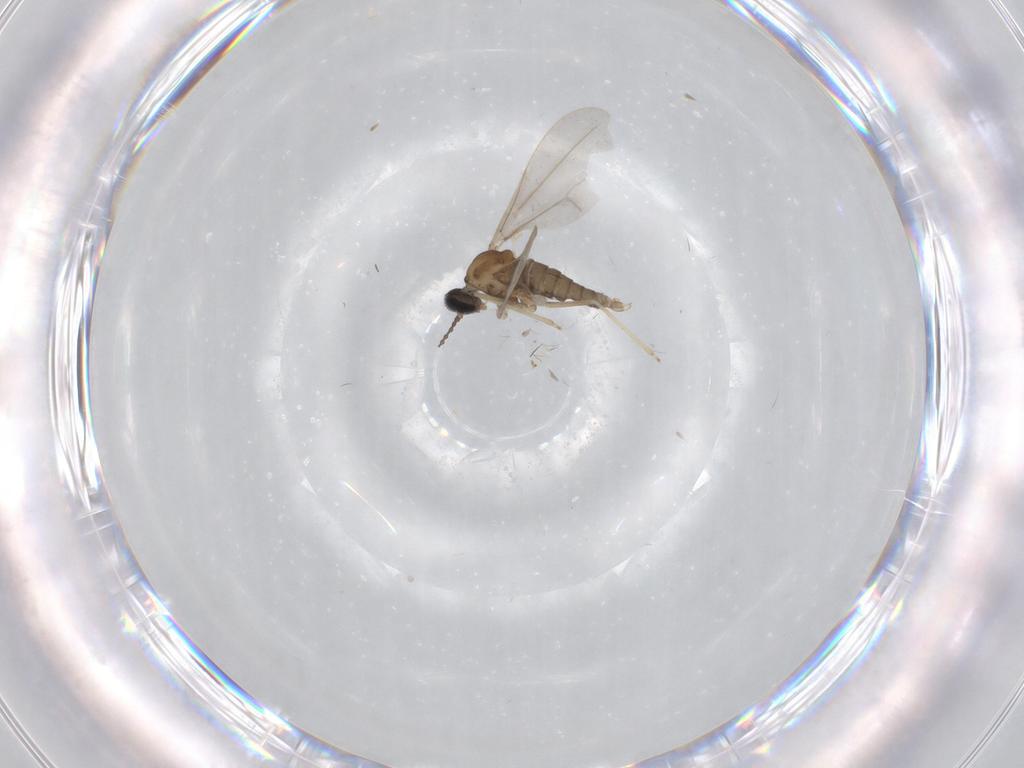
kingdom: Animalia
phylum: Arthropoda
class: Insecta
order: Diptera
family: Cecidomyiidae
